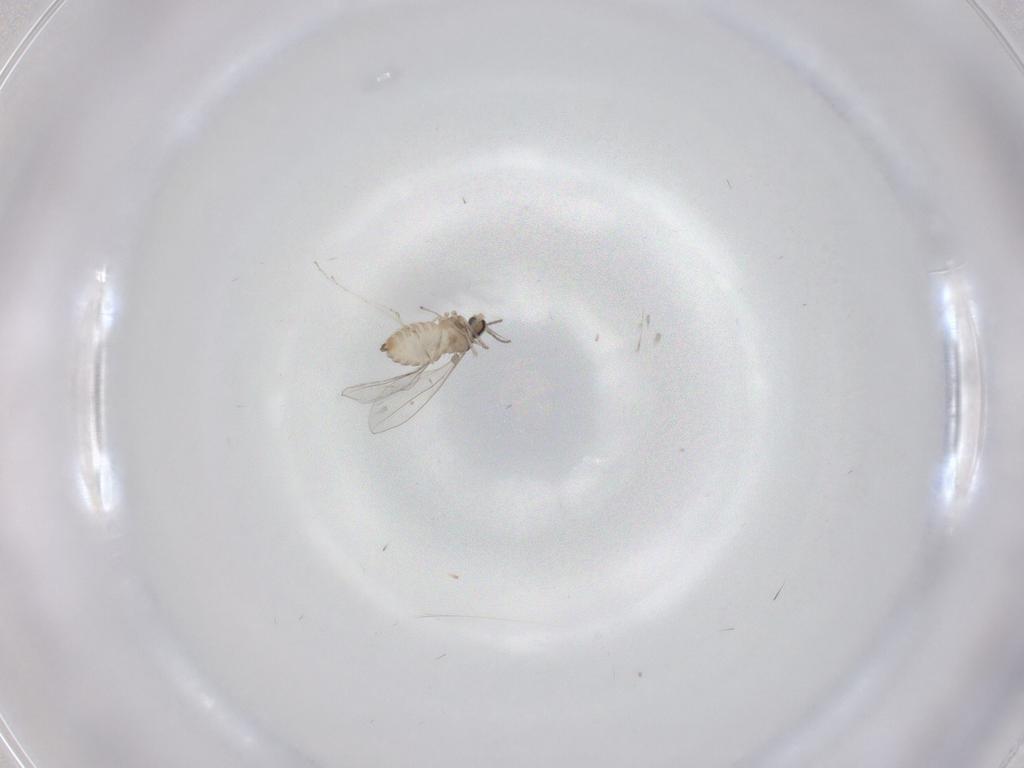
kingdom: Animalia
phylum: Arthropoda
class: Insecta
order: Diptera
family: Cecidomyiidae
